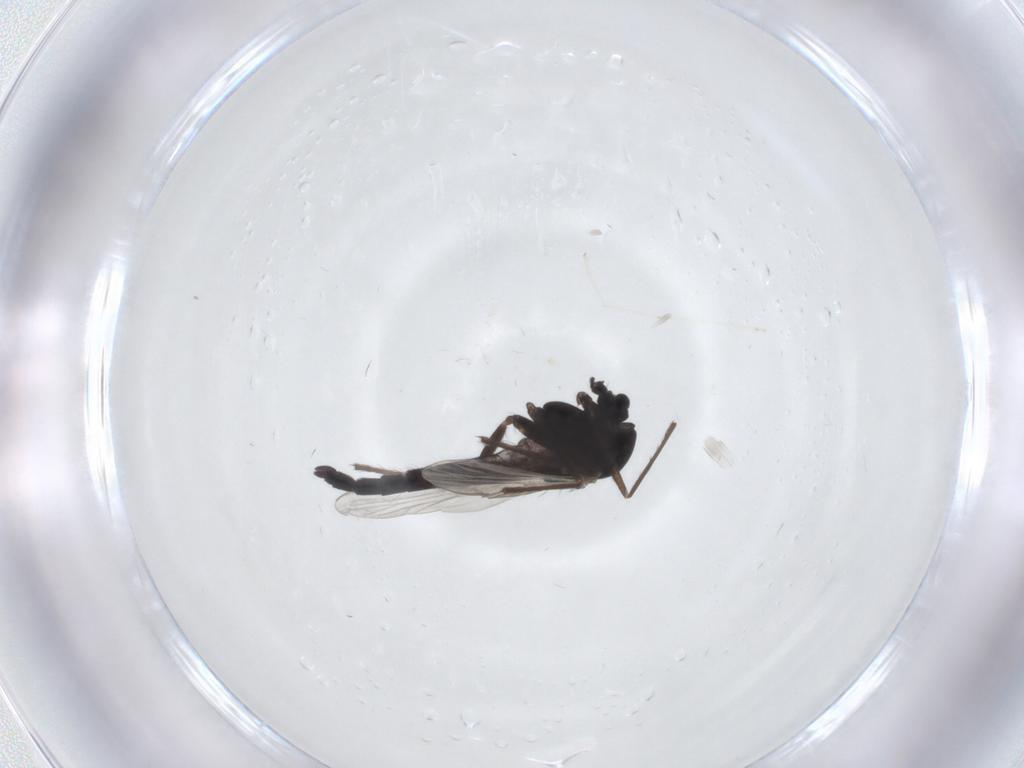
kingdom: Animalia
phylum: Arthropoda
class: Insecta
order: Diptera
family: Chironomidae
